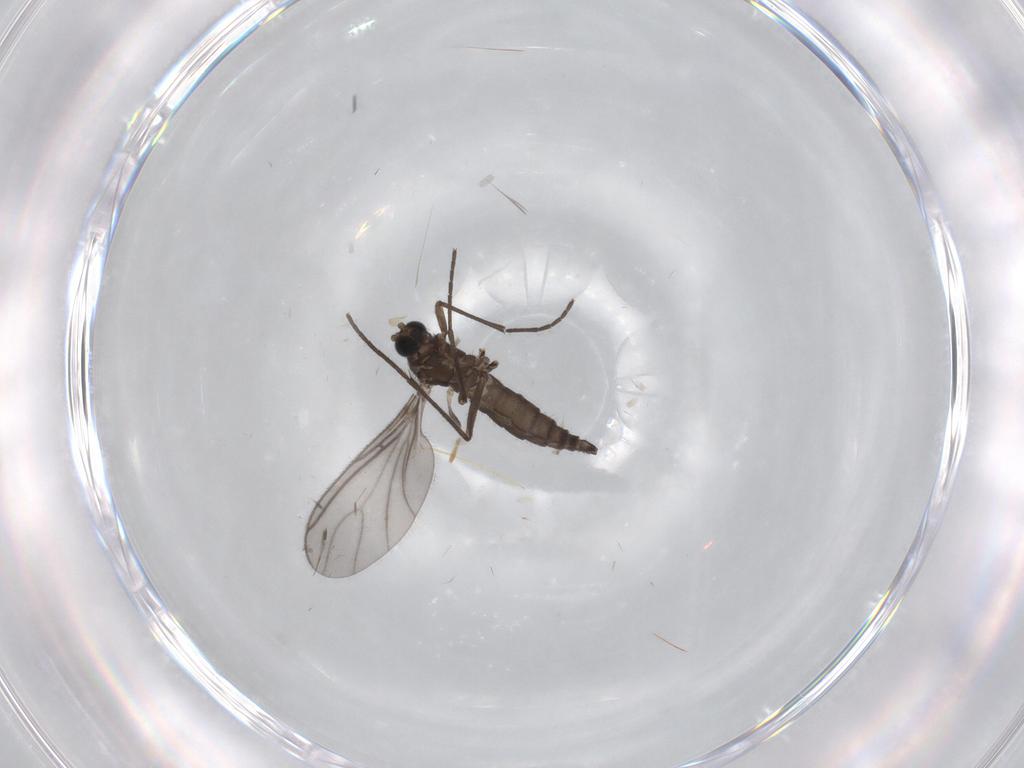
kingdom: Animalia
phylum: Arthropoda
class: Insecta
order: Diptera
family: Sciaridae
